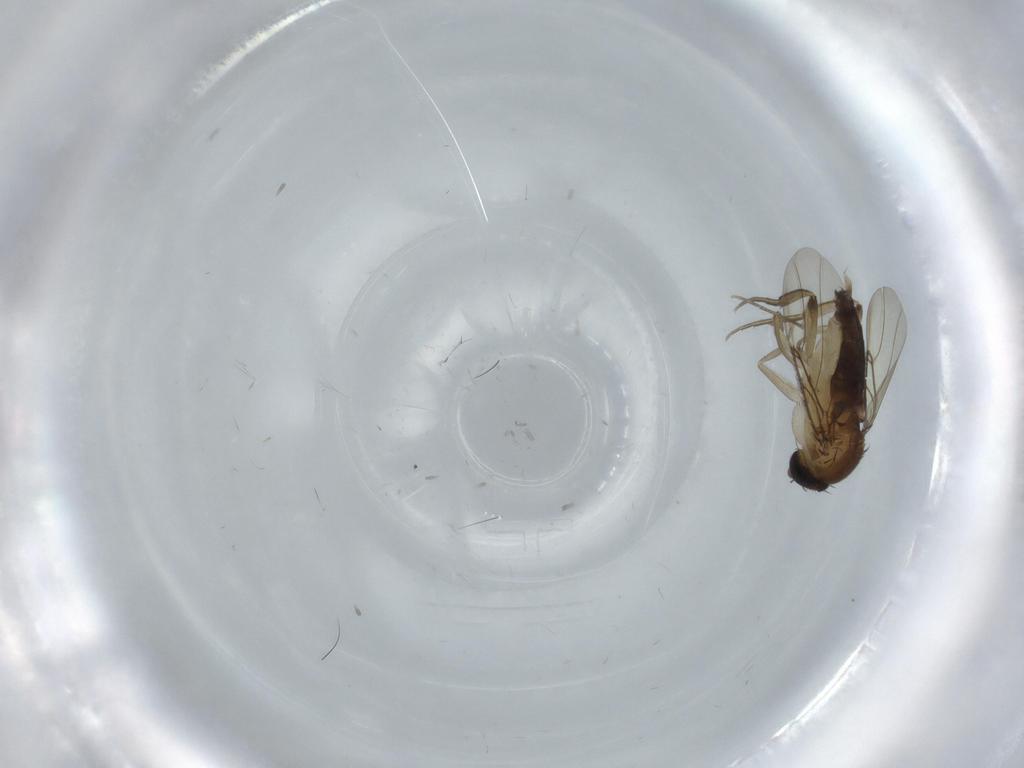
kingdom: Animalia
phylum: Arthropoda
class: Insecta
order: Diptera
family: Phoridae
